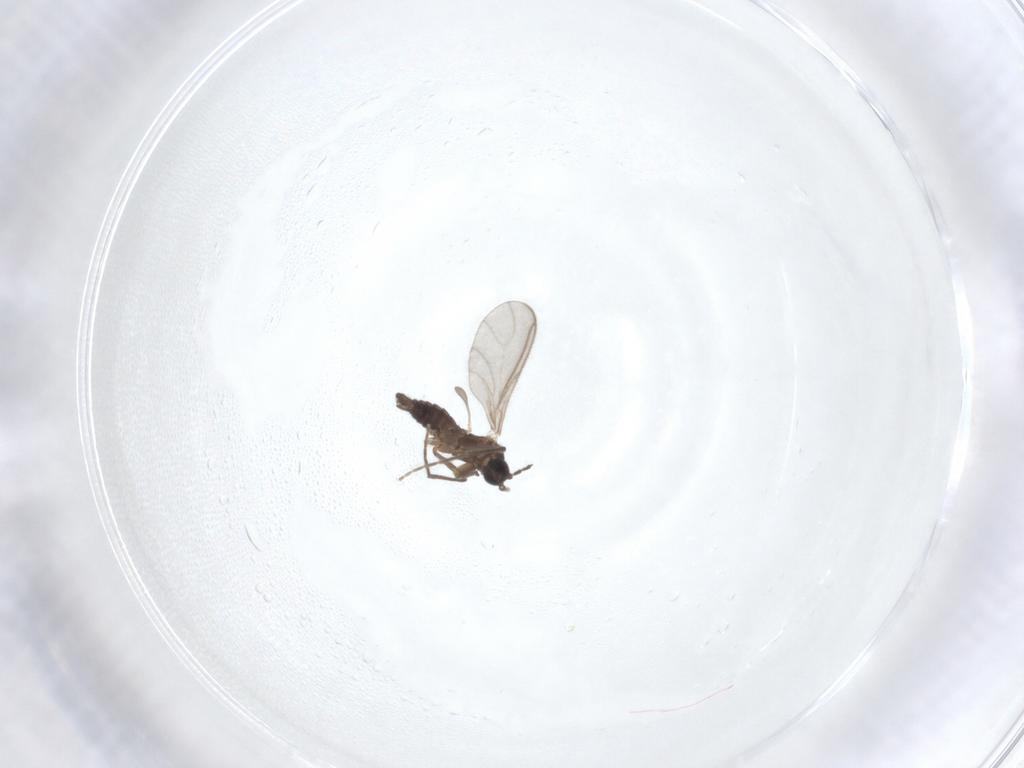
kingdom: Animalia
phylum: Arthropoda
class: Insecta
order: Diptera
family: Sciaridae
